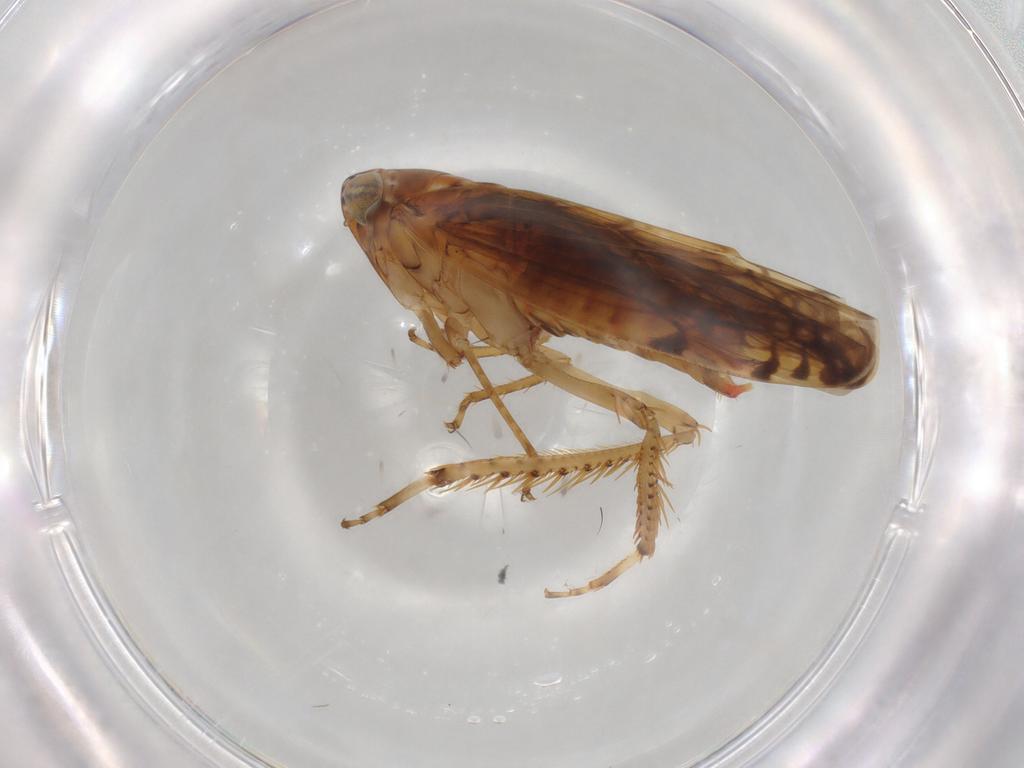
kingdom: Animalia
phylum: Arthropoda
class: Insecta
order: Hemiptera
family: Cicadellidae
